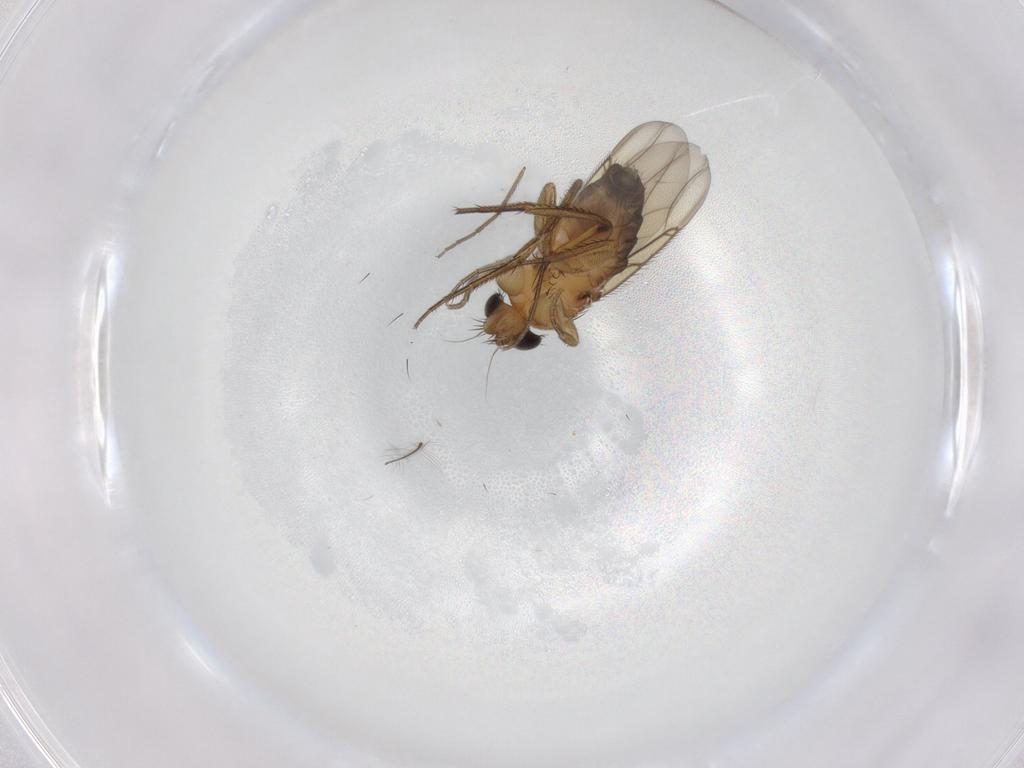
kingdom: Animalia
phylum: Arthropoda
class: Insecta
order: Diptera
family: Phoridae
